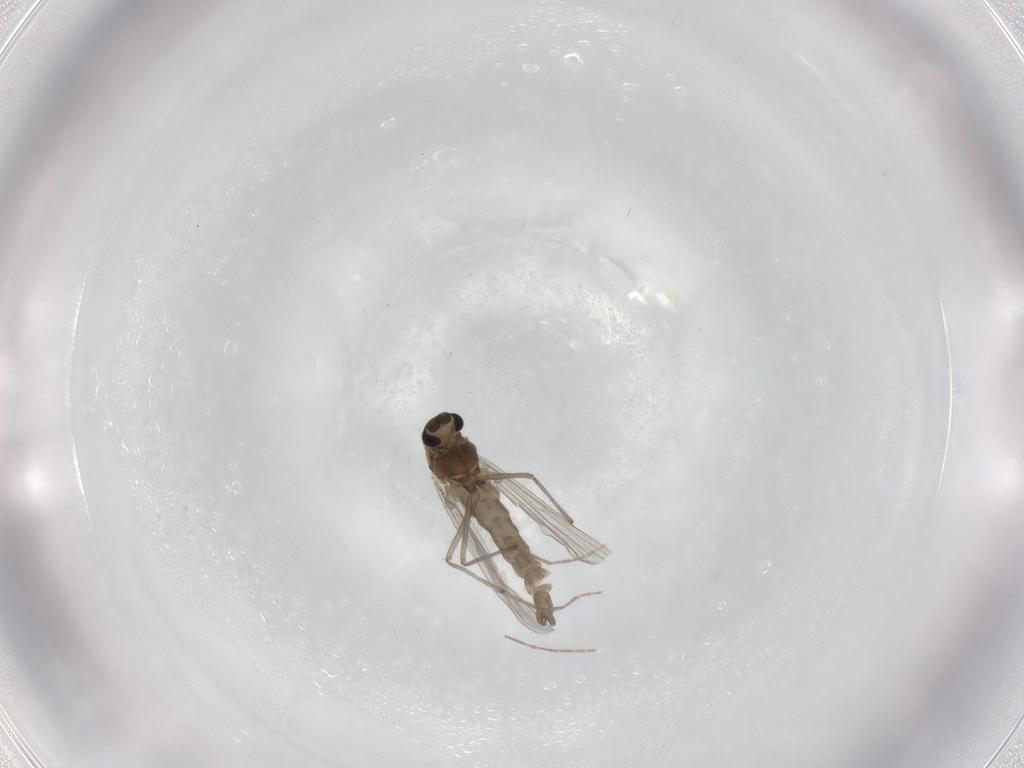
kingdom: Animalia
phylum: Arthropoda
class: Insecta
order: Diptera
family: Chironomidae
